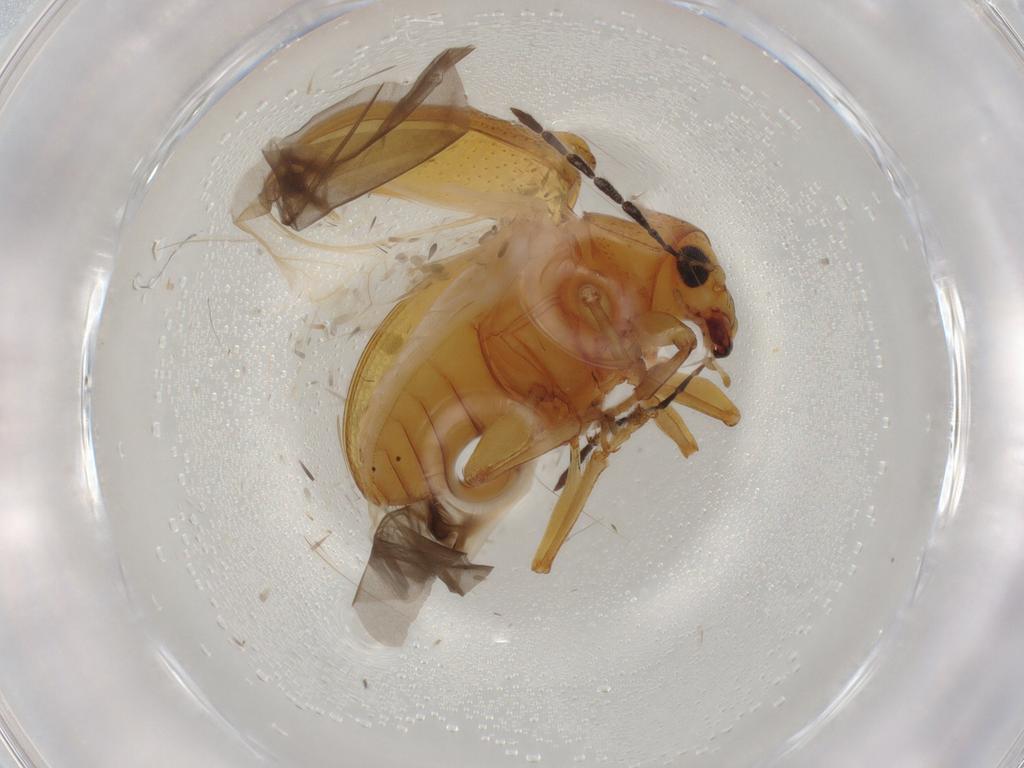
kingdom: Animalia
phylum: Arthropoda
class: Insecta
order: Coleoptera
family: Chrysomelidae
